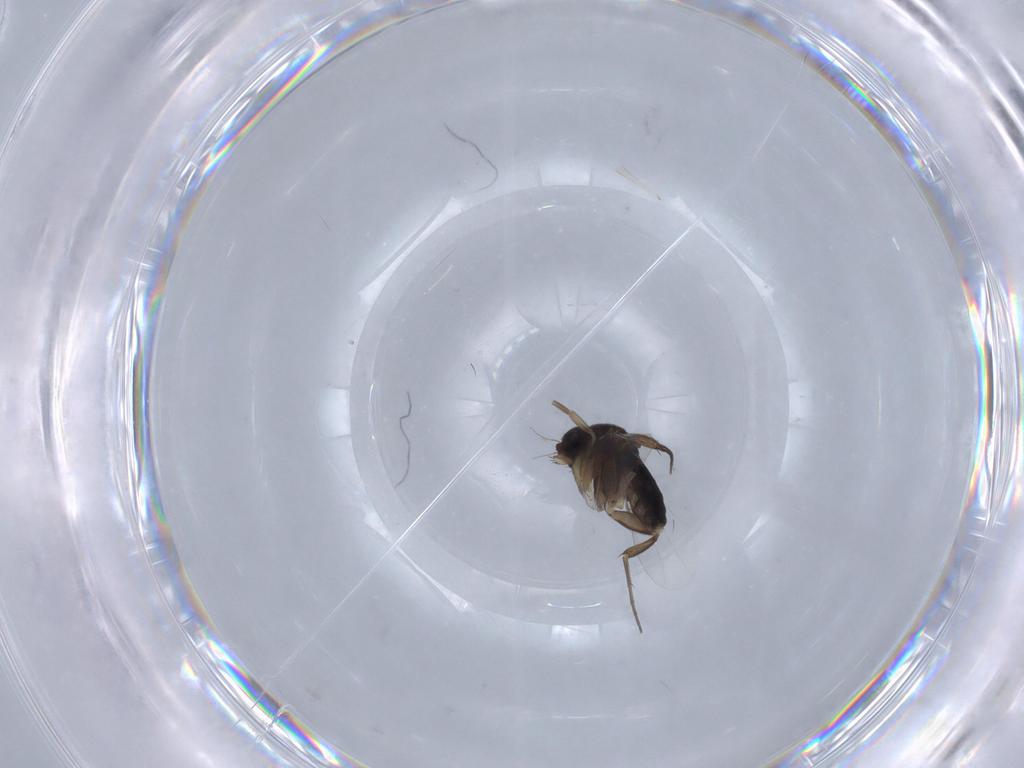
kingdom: Animalia
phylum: Arthropoda
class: Insecta
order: Diptera
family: Phoridae
